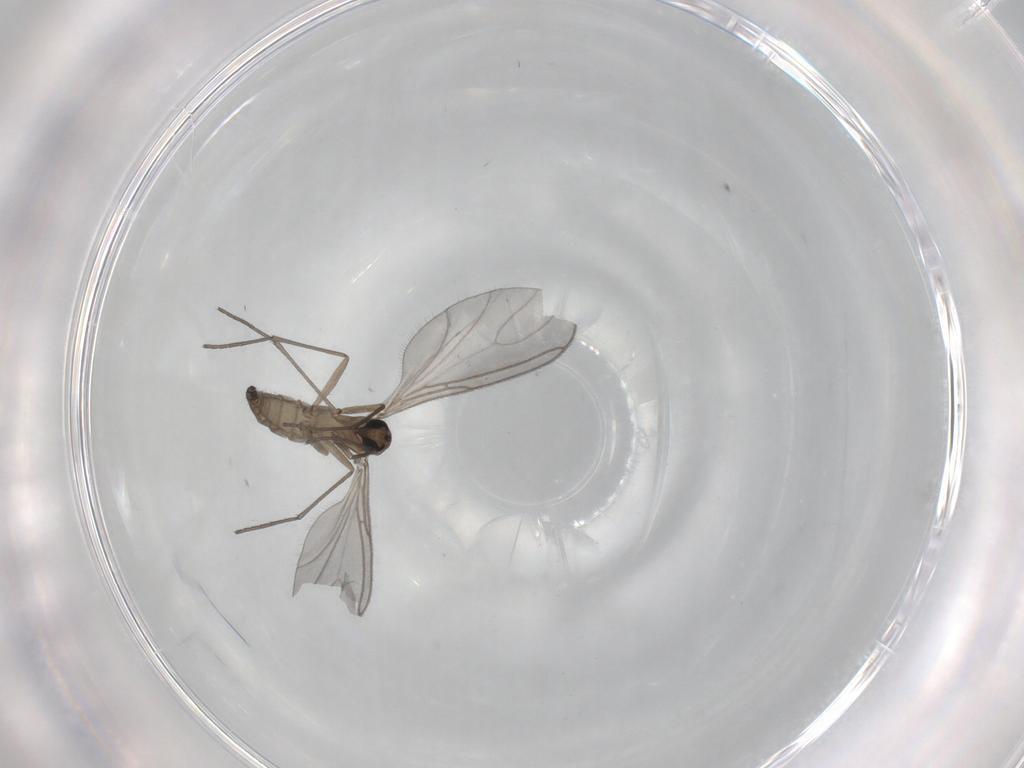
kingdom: Animalia
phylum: Arthropoda
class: Insecta
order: Diptera
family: Sciaridae
